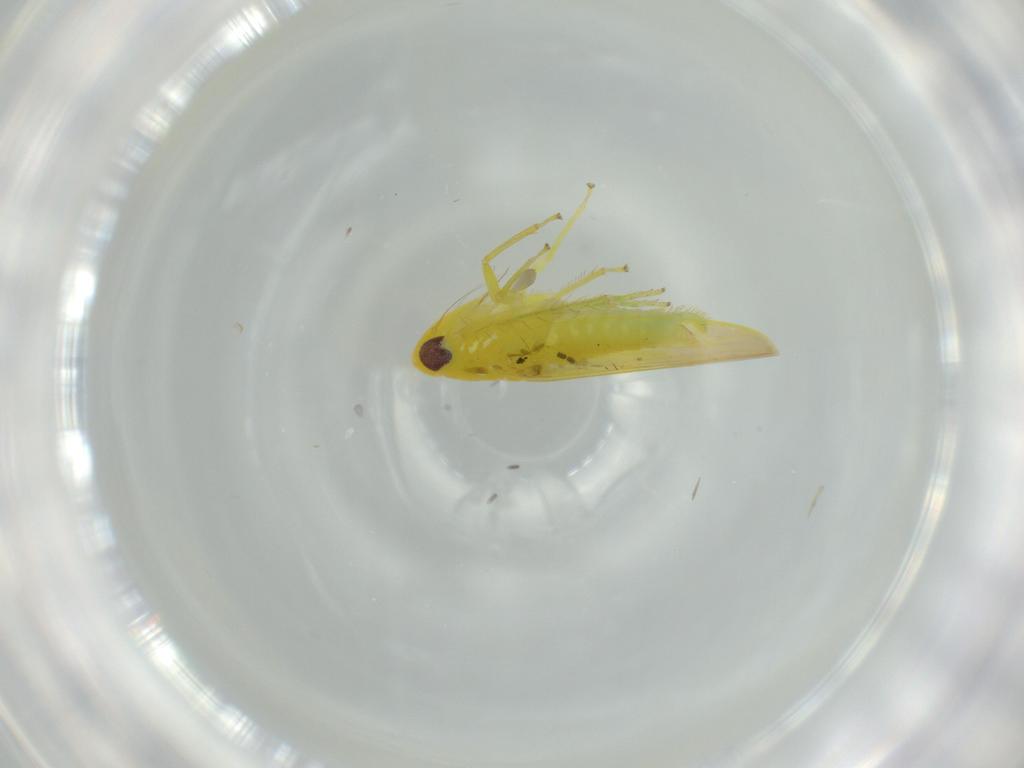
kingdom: Animalia
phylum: Arthropoda
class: Insecta
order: Hemiptera
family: Cicadellidae
